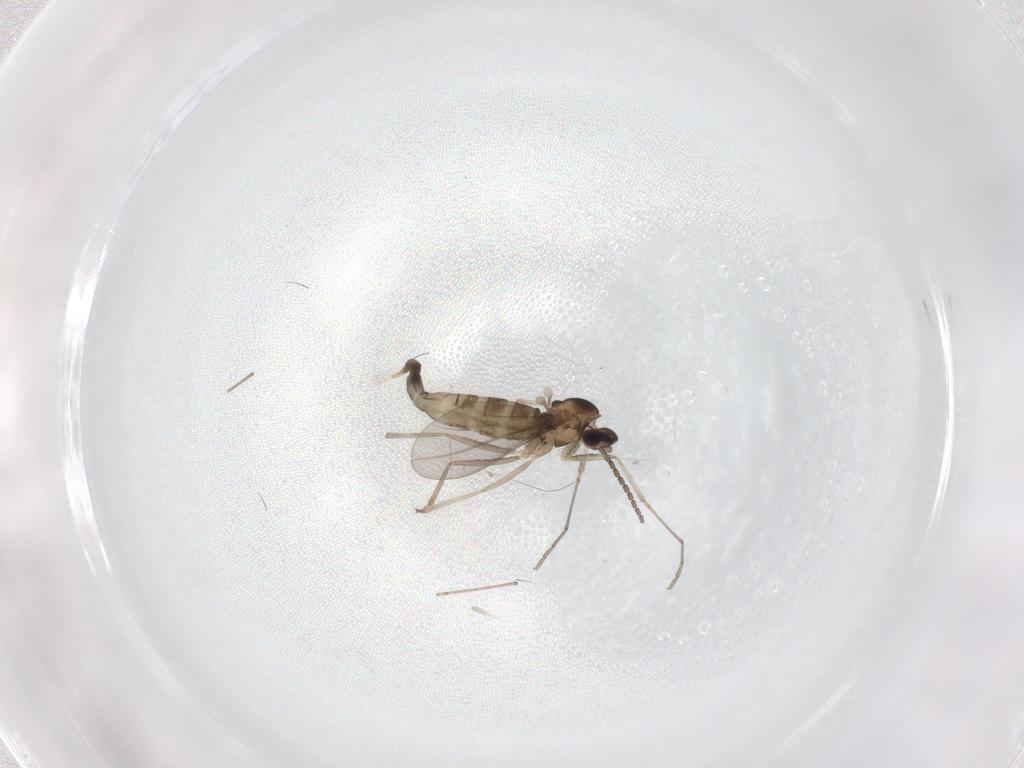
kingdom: Animalia
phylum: Arthropoda
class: Insecta
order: Diptera
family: Cecidomyiidae
